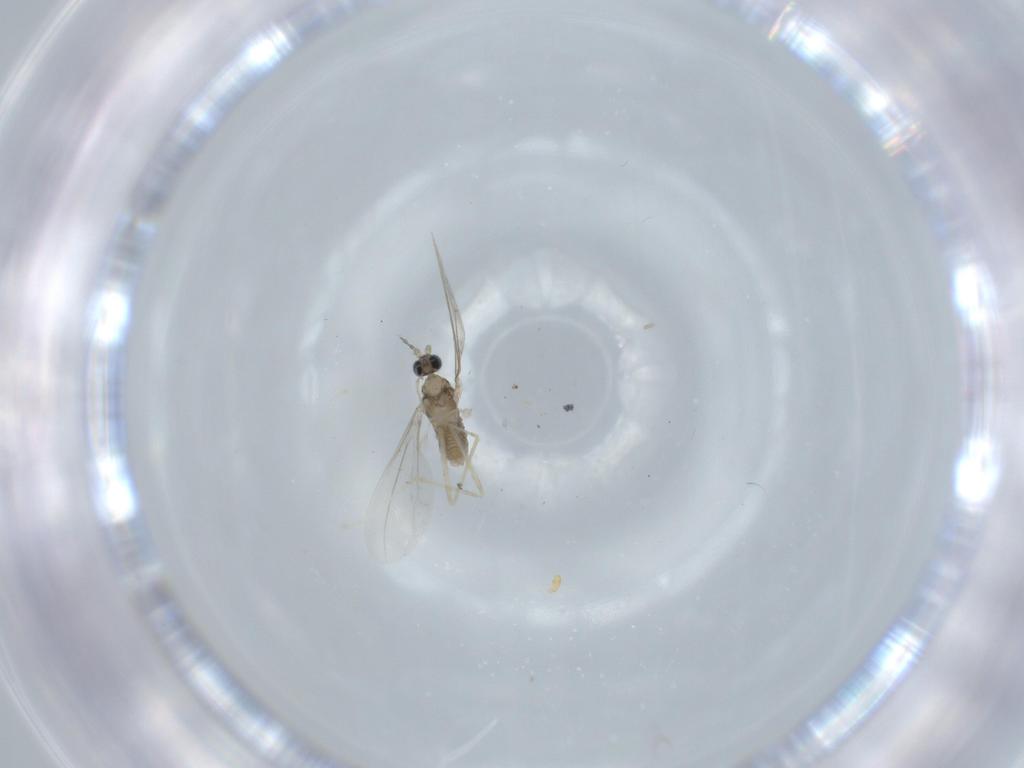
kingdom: Animalia
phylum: Arthropoda
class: Insecta
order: Diptera
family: Cecidomyiidae
